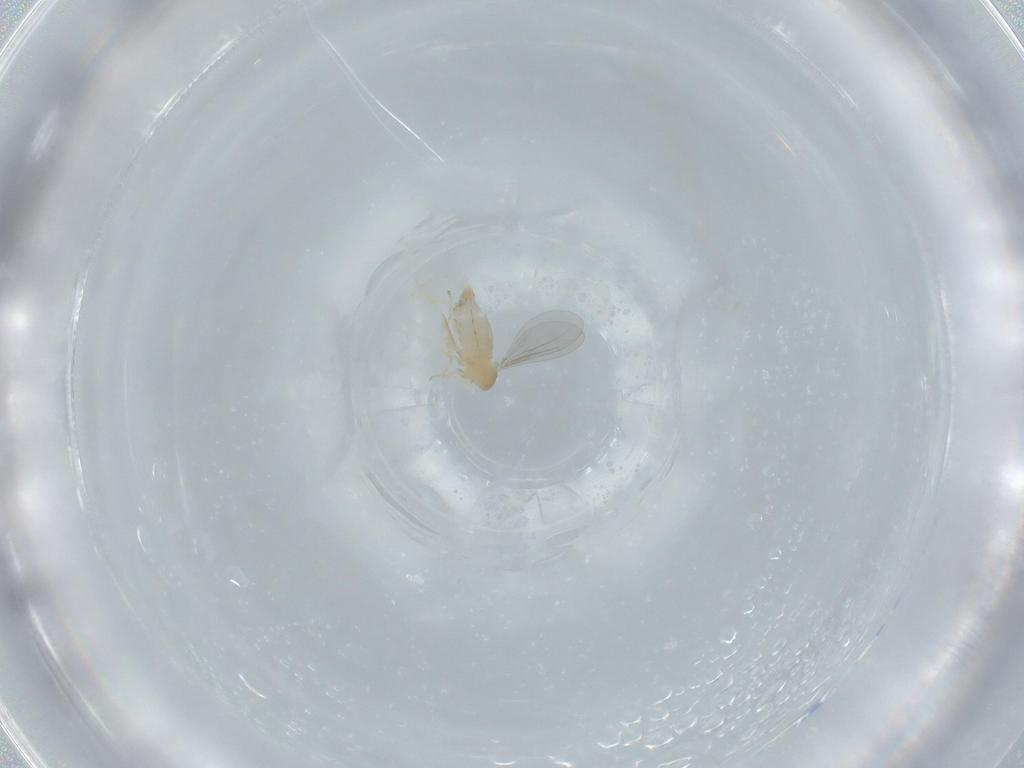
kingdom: Animalia
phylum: Arthropoda
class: Insecta
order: Diptera
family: Cecidomyiidae
